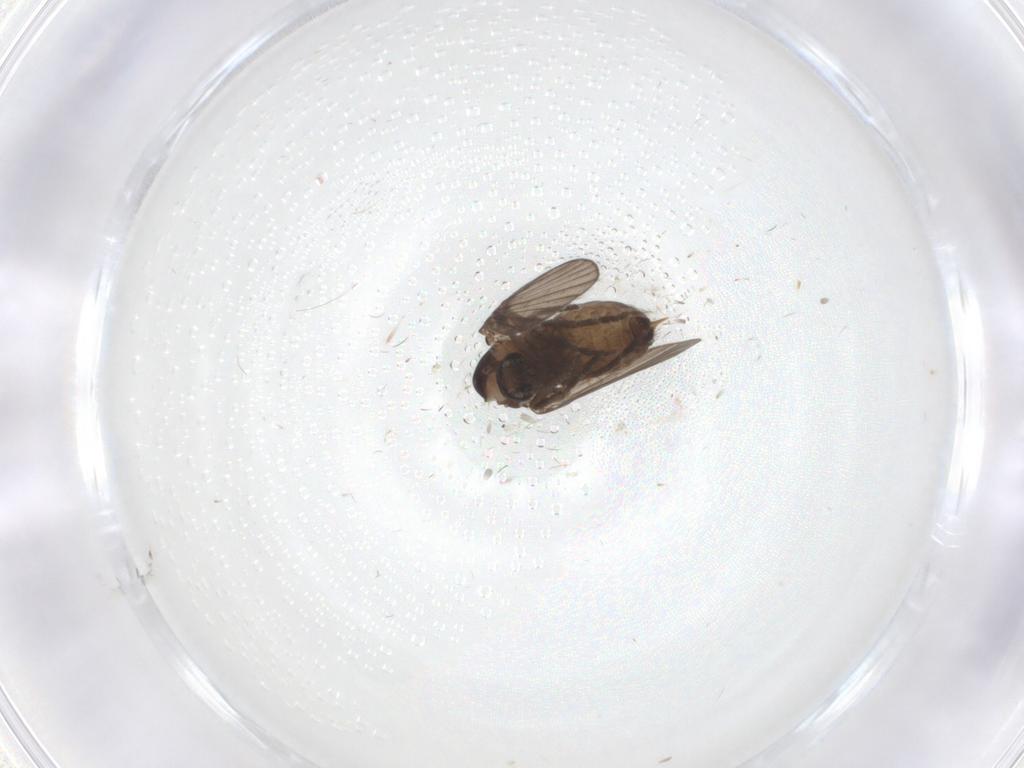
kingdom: Animalia
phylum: Arthropoda
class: Insecta
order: Diptera
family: Psychodidae
